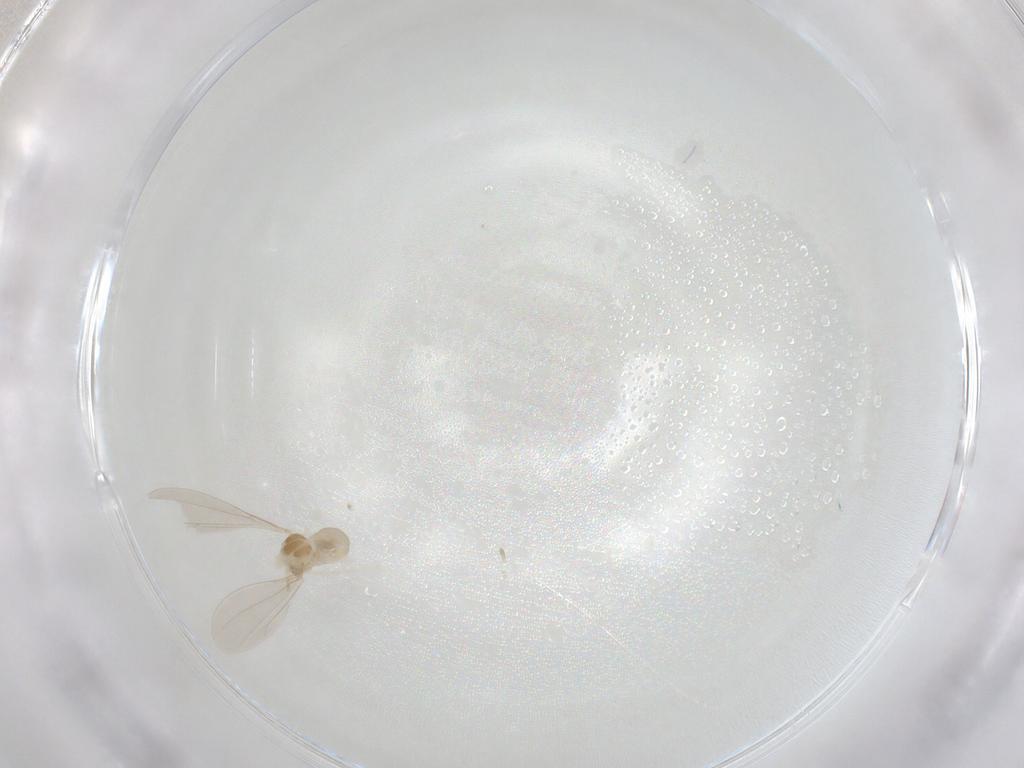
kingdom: Animalia
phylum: Arthropoda
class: Insecta
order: Diptera
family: Cecidomyiidae
